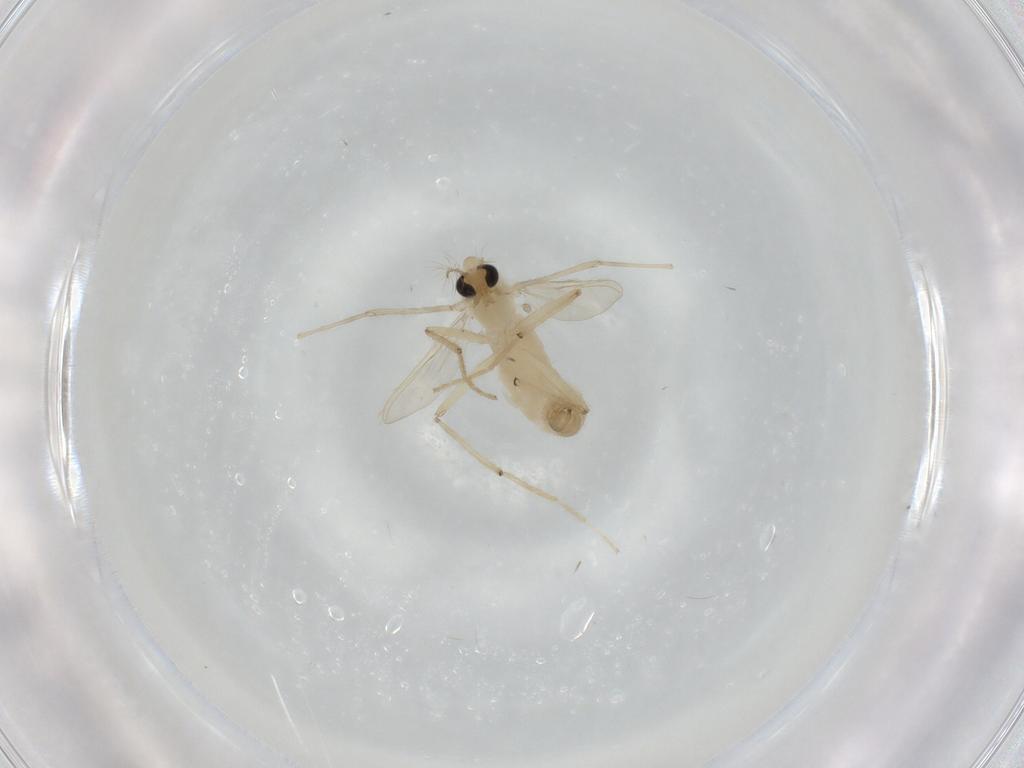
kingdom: Animalia
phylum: Arthropoda
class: Insecta
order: Diptera
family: Chironomidae
